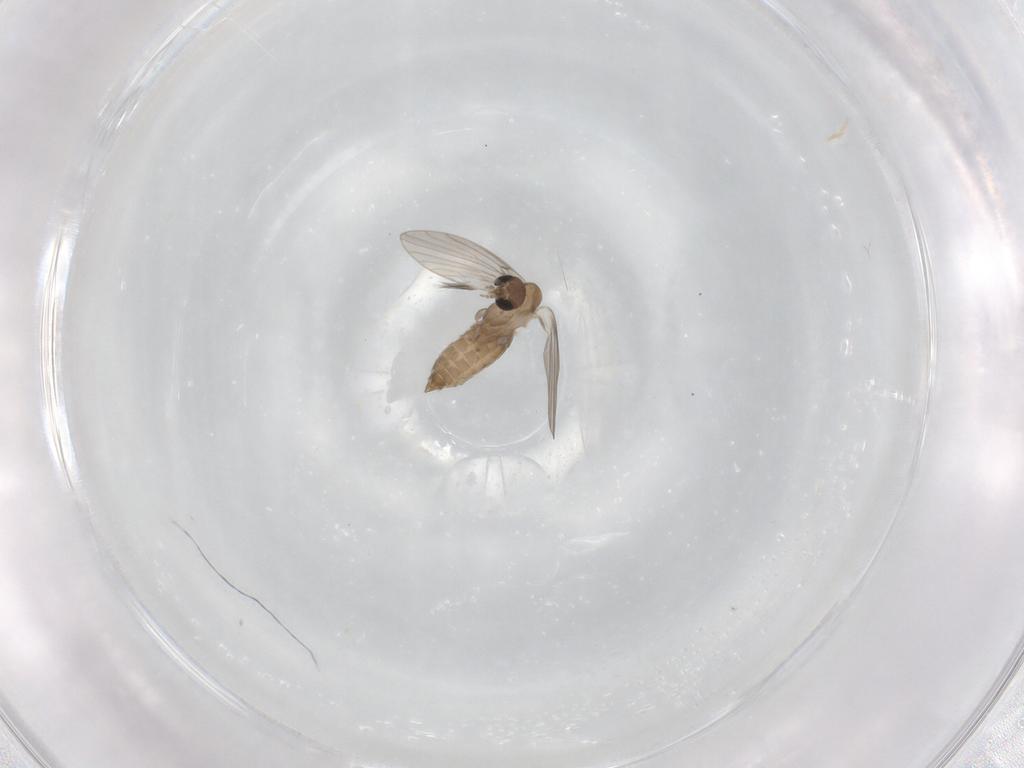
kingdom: Animalia
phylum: Arthropoda
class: Insecta
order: Diptera
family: Psychodidae
